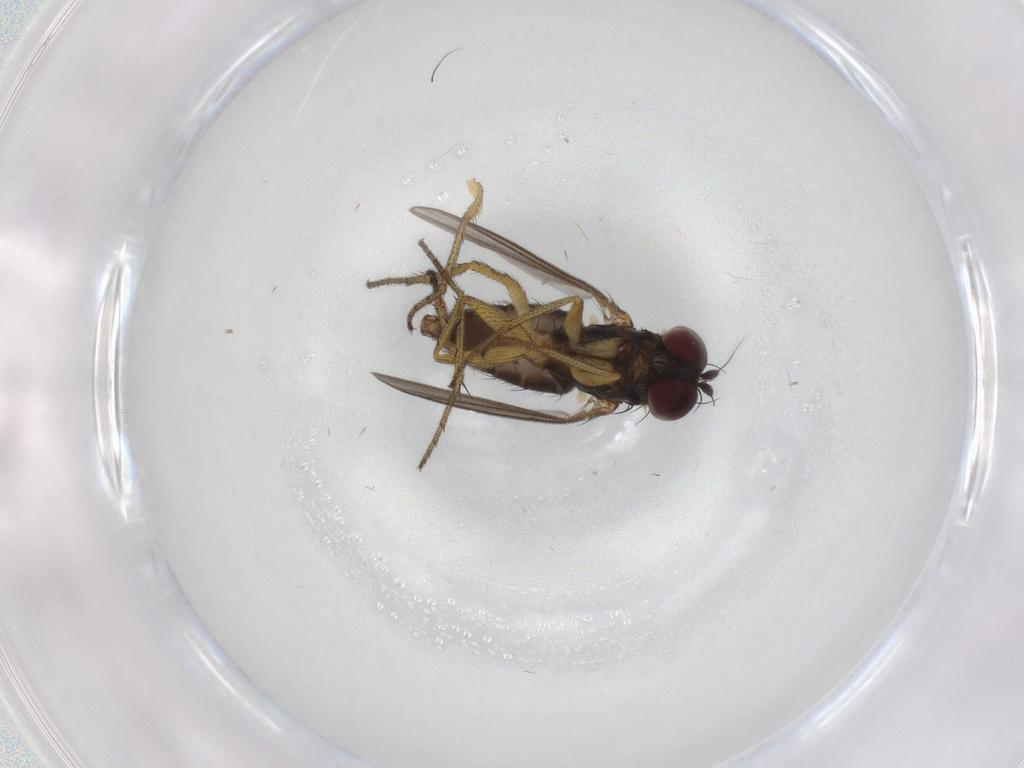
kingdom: Animalia
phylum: Arthropoda
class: Insecta
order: Diptera
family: Dolichopodidae
